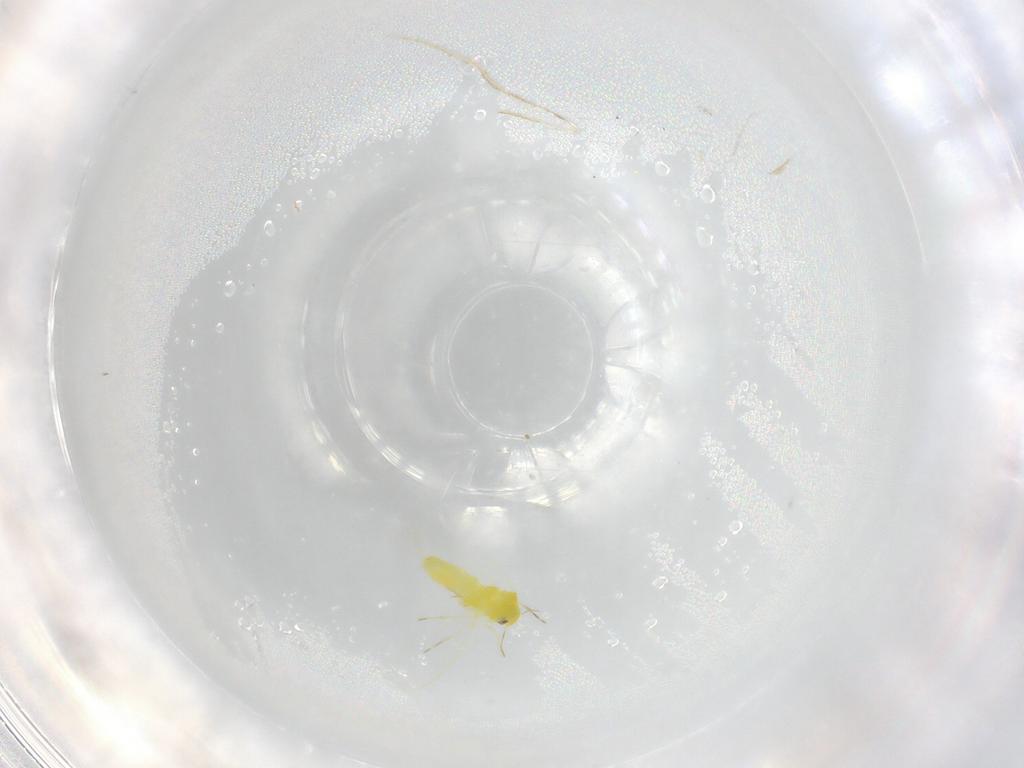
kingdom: Animalia
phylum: Arthropoda
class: Insecta
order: Hemiptera
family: Aleyrodidae
